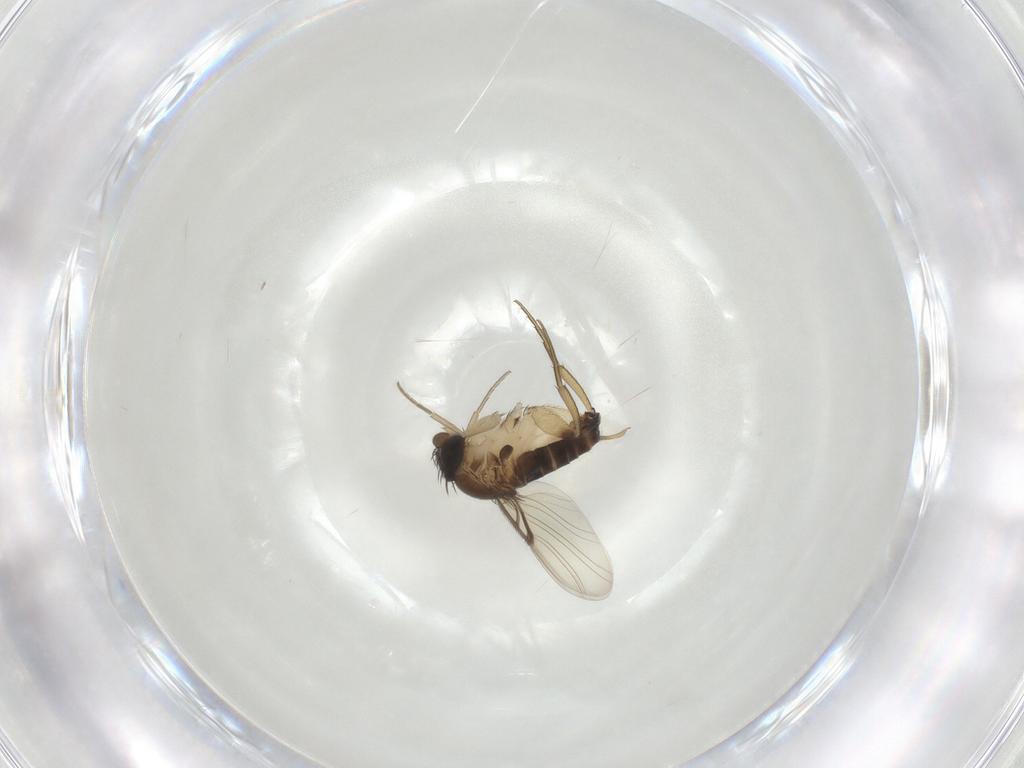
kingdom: Animalia
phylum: Arthropoda
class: Insecta
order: Diptera
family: Phoridae
